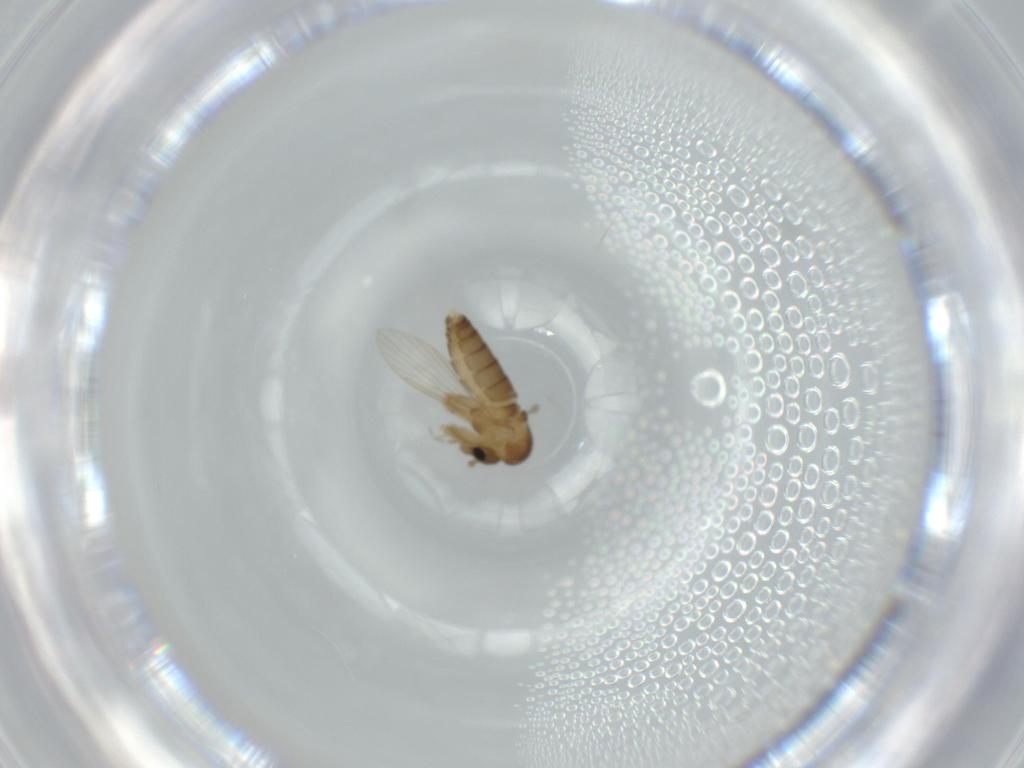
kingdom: Animalia
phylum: Arthropoda
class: Insecta
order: Diptera
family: Psychodidae
